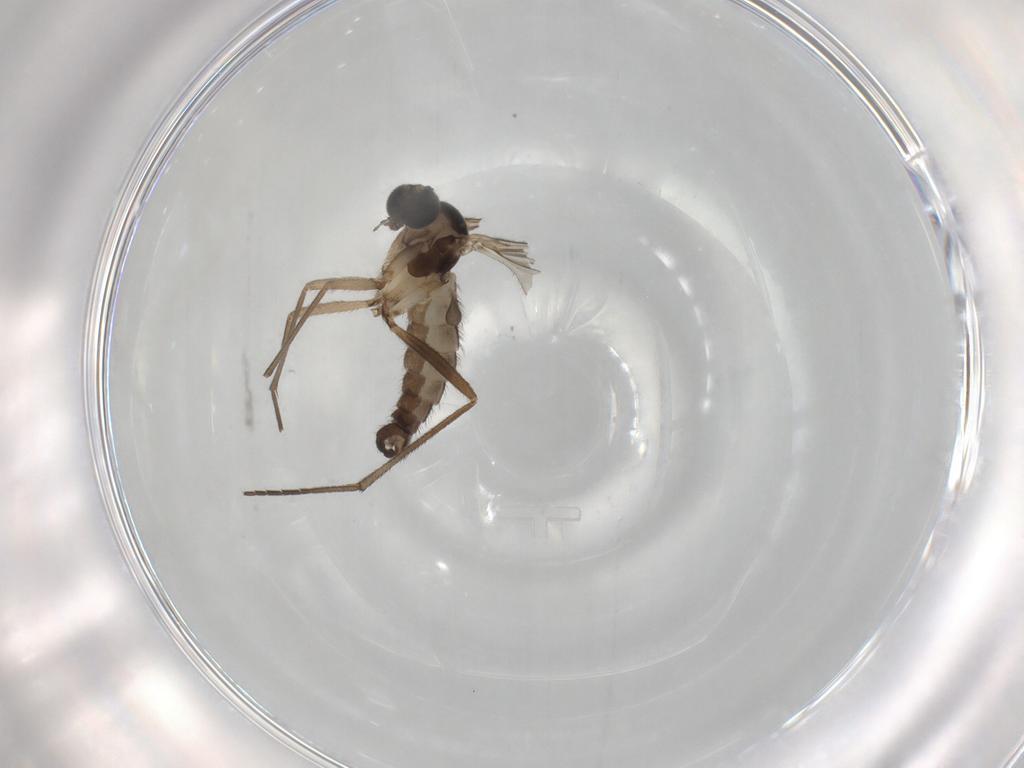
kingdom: Animalia
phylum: Arthropoda
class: Insecta
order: Diptera
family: Sciaridae
